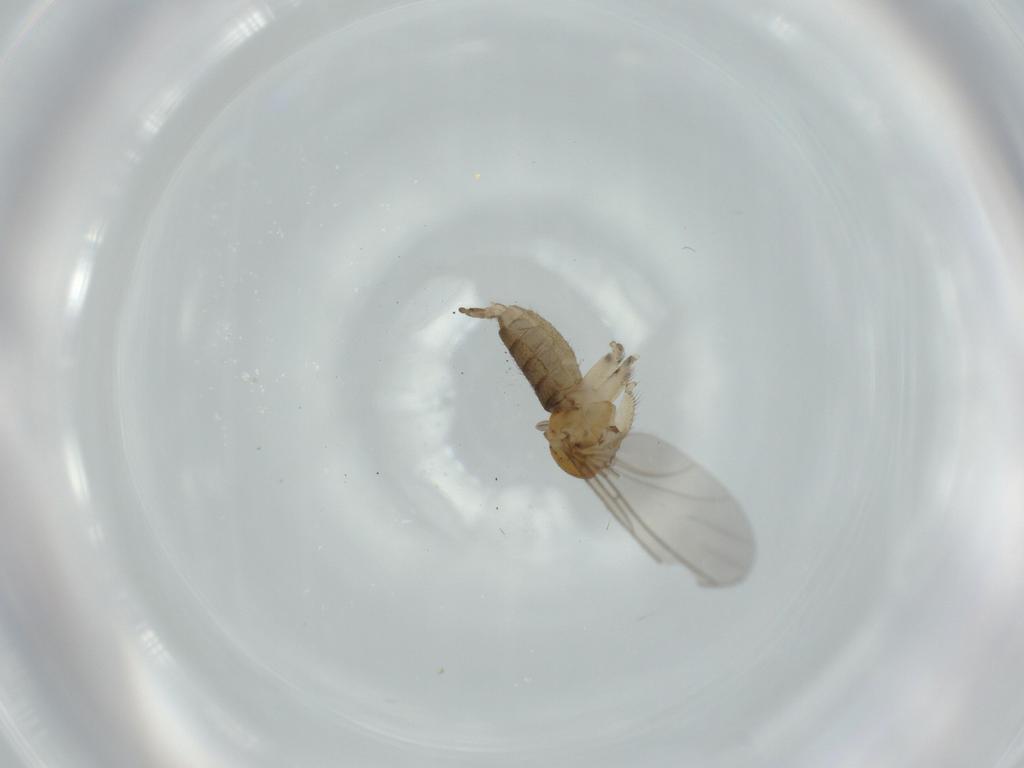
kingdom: Animalia
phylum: Arthropoda
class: Insecta
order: Diptera
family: Sciaridae
